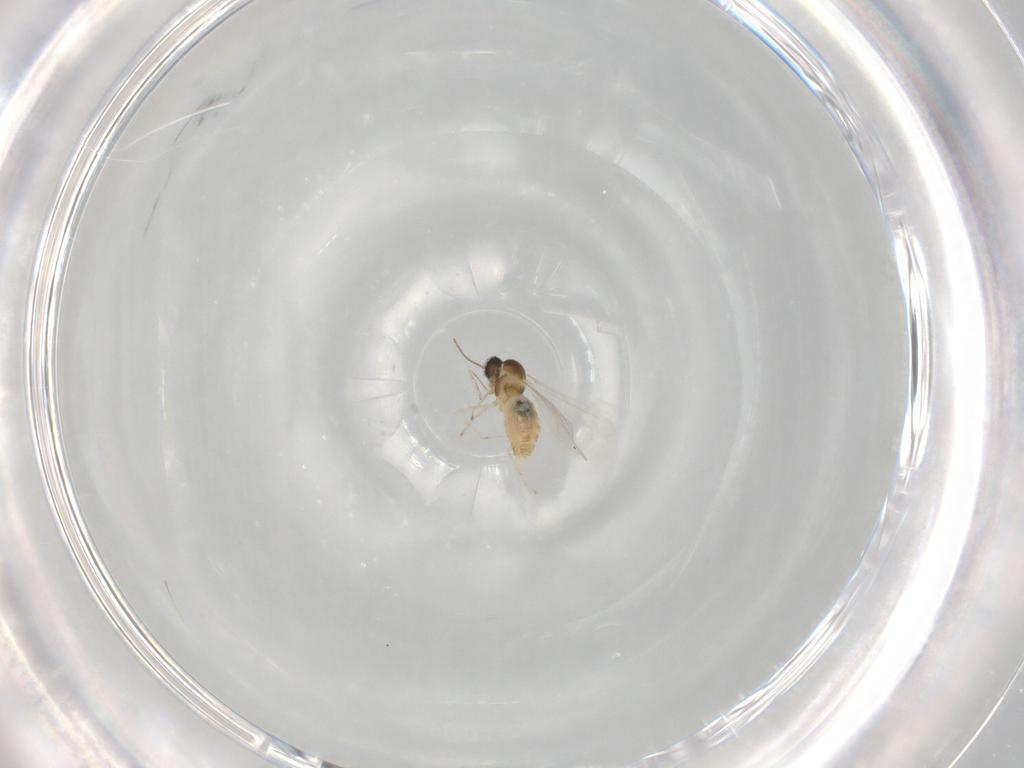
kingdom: Animalia
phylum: Arthropoda
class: Insecta
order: Diptera
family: Cecidomyiidae
